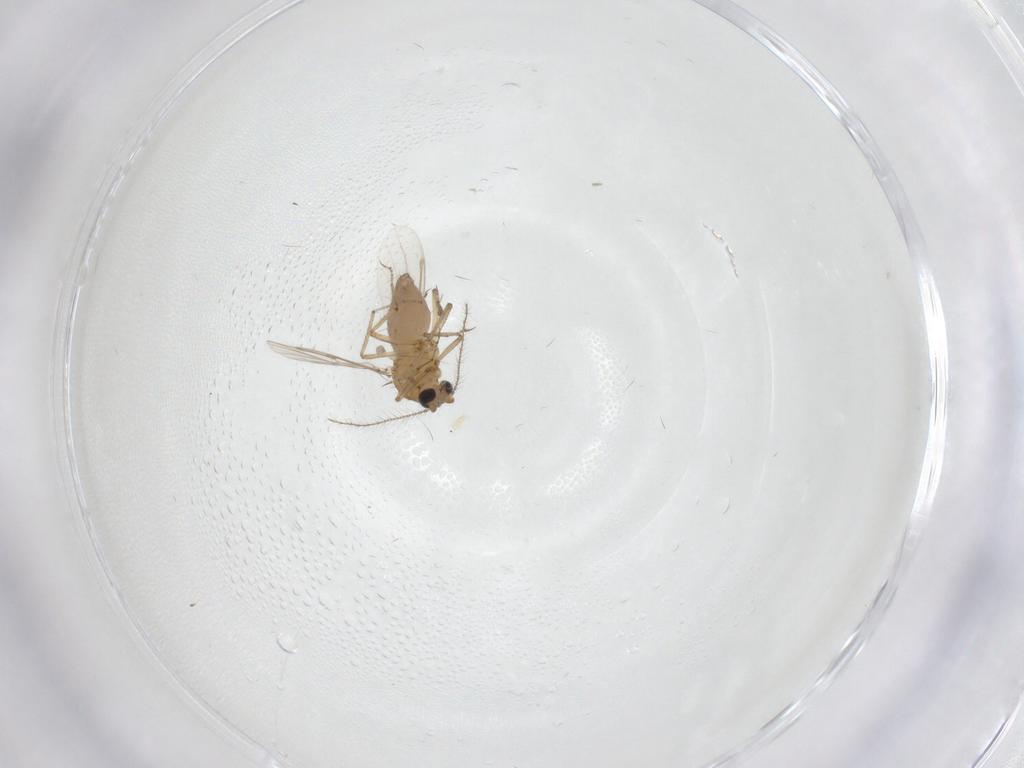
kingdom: Animalia
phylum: Arthropoda
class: Insecta
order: Diptera
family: Ceratopogonidae
